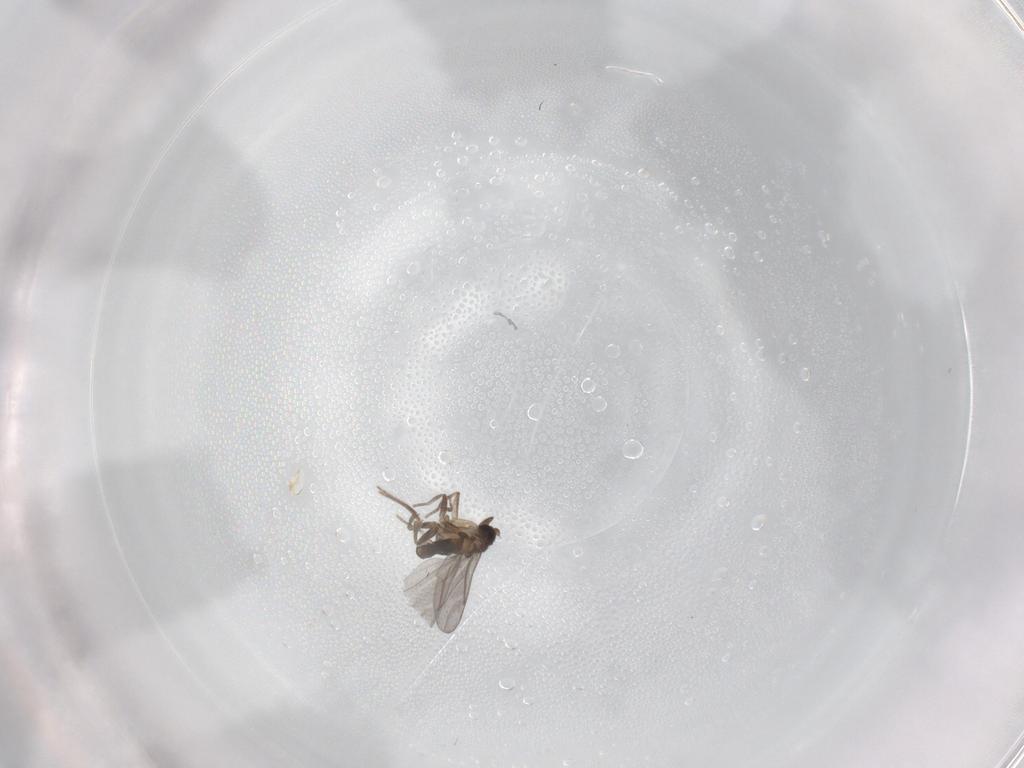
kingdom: Animalia
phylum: Arthropoda
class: Insecta
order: Diptera
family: Cecidomyiidae
